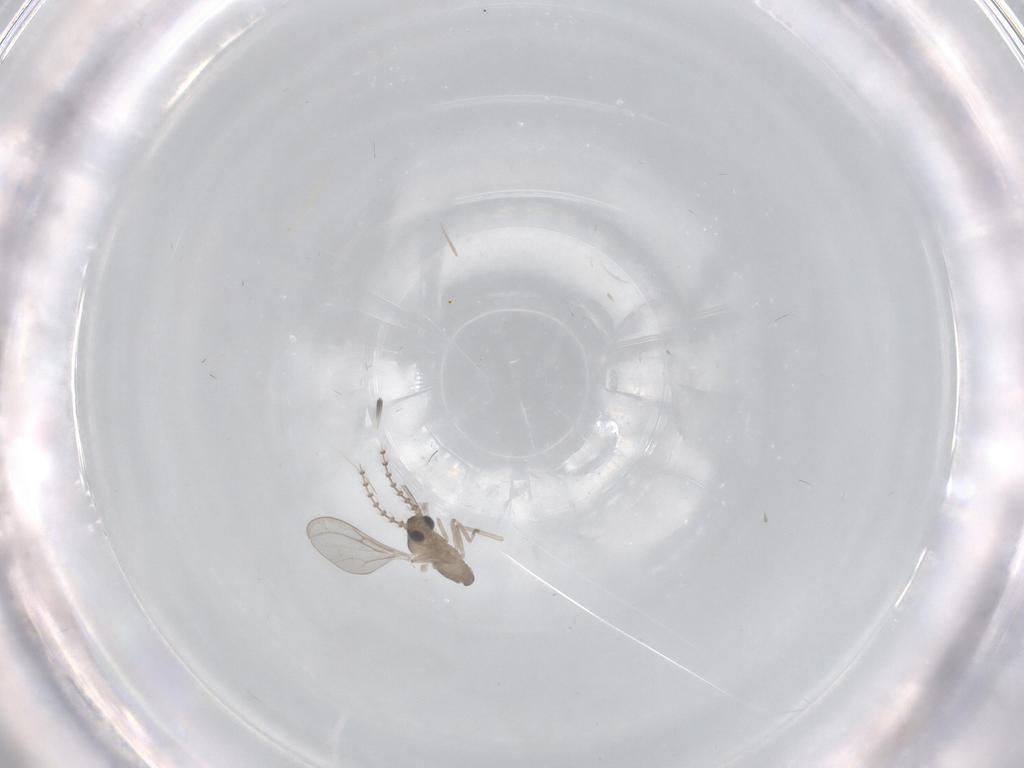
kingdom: Animalia
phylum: Arthropoda
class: Insecta
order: Diptera
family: Cecidomyiidae
